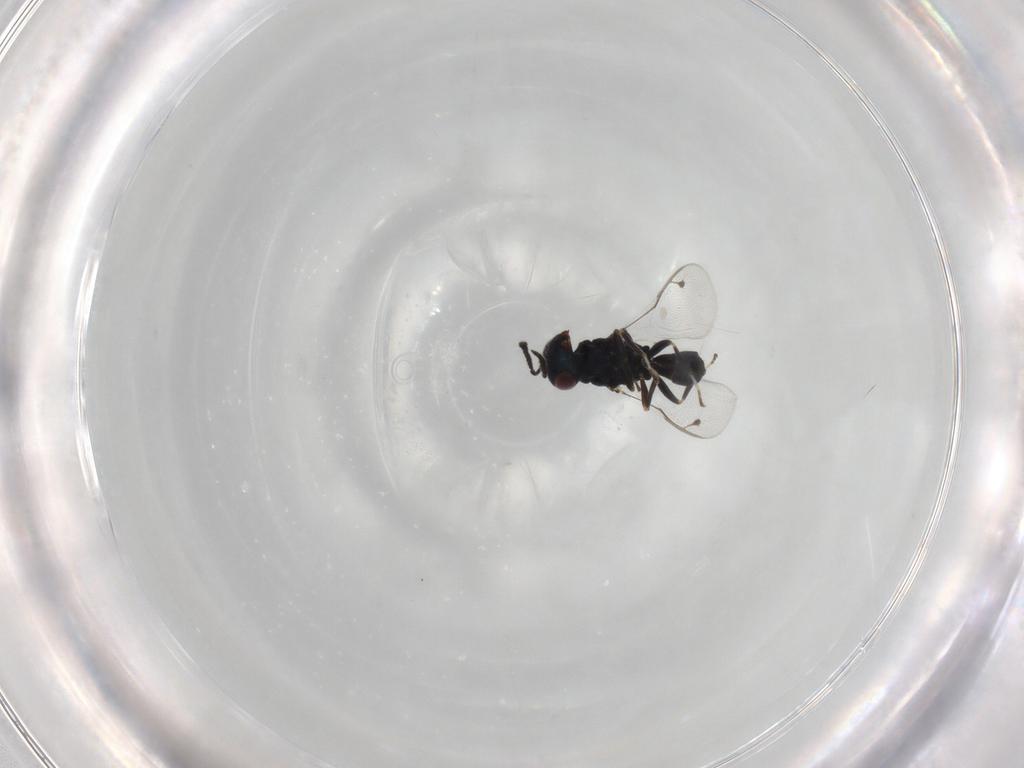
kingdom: Animalia
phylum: Arthropoda
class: Insecta
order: Hymenoptera
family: Pteromalidae
